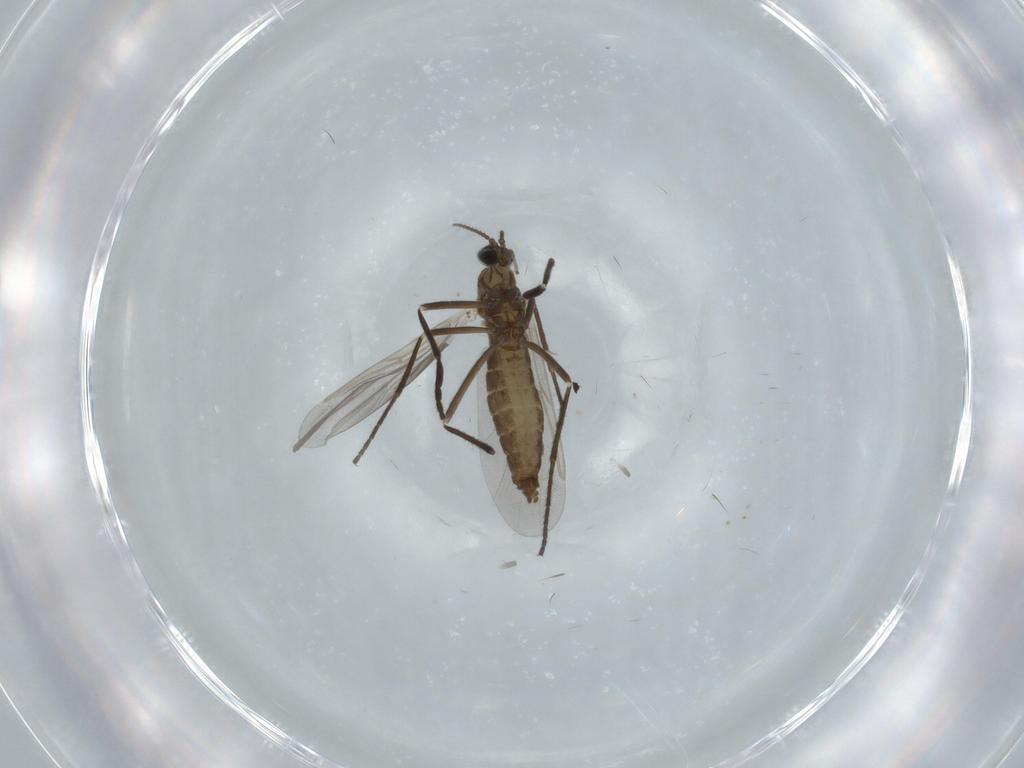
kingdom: Animalia
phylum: Arthropoda
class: Insecta
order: Diptera
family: Cecidomyiidae
